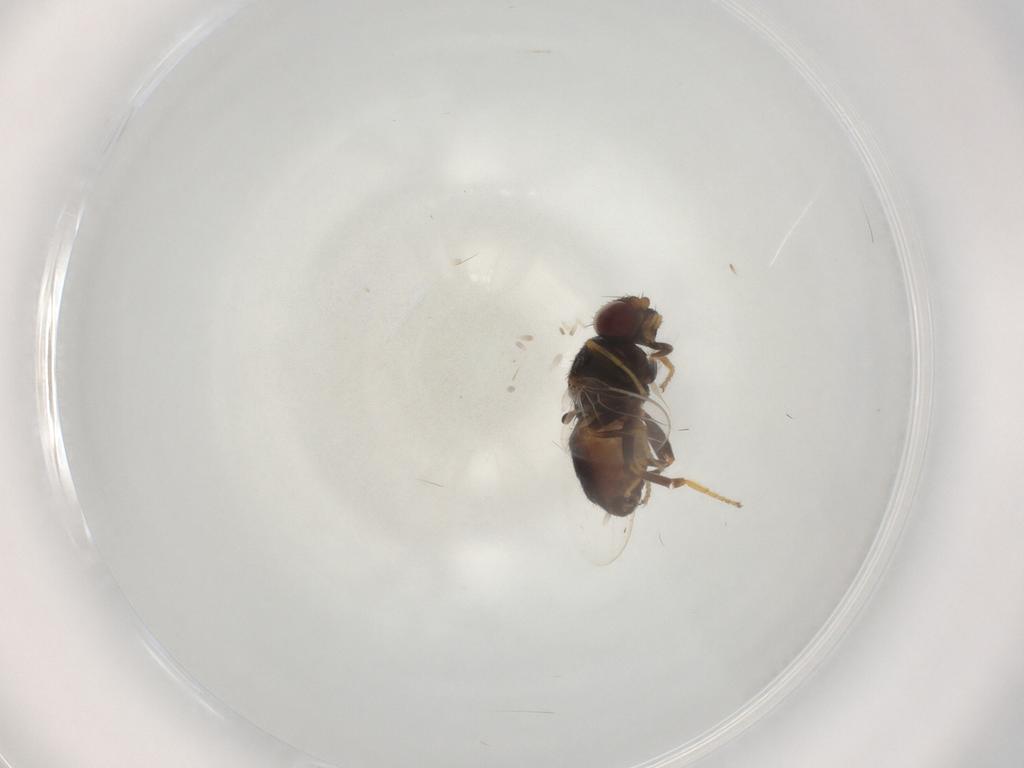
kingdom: Animalia
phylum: Arthropoda
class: Insecta
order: Diptera
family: Chloropidae
